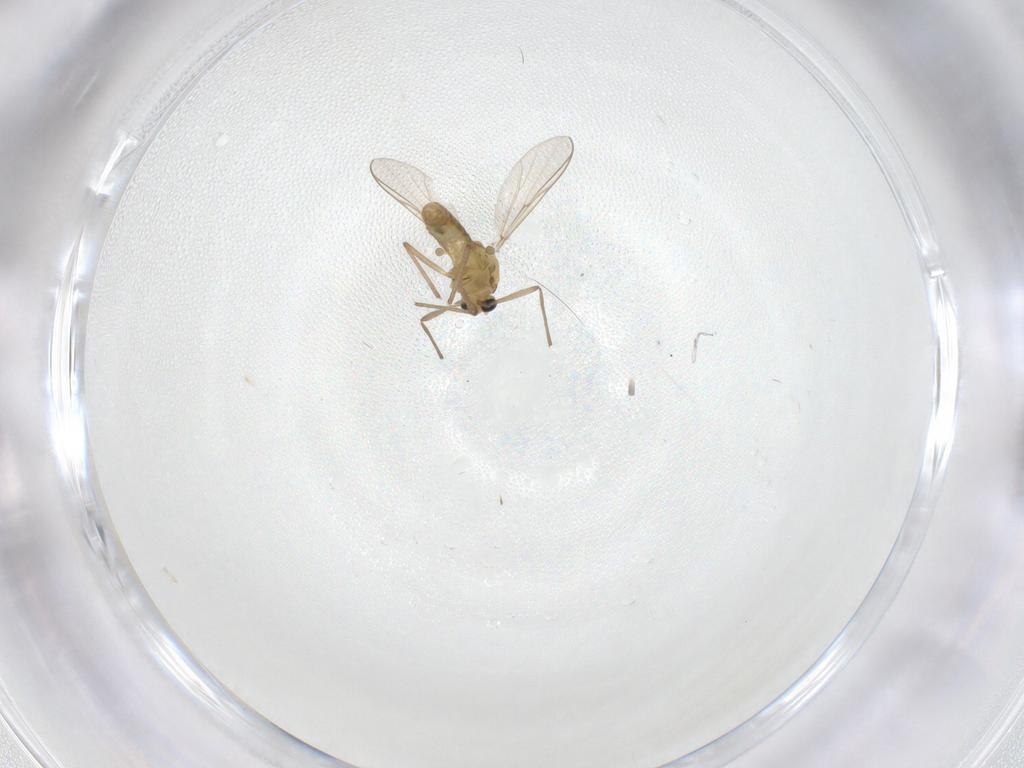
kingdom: Animalia
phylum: Arthropoda
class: Insecta
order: Diptera
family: Chironomidae
